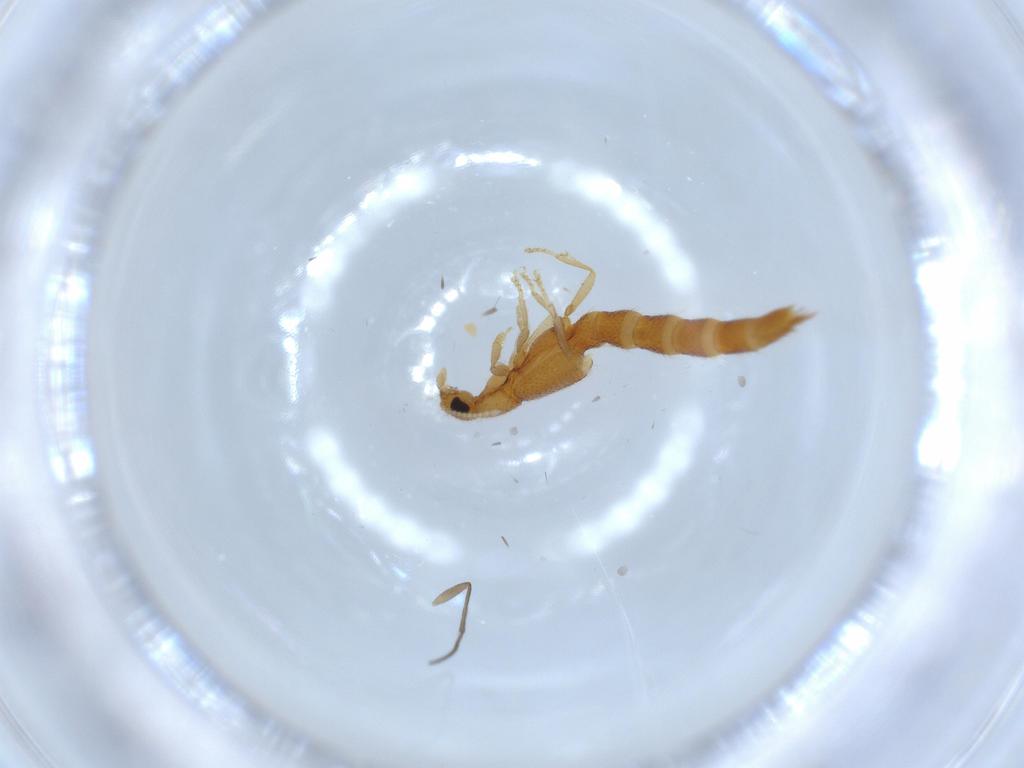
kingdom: Animalia
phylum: Arthropoda
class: Insecta
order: Coleoptera
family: Staphylinidae
